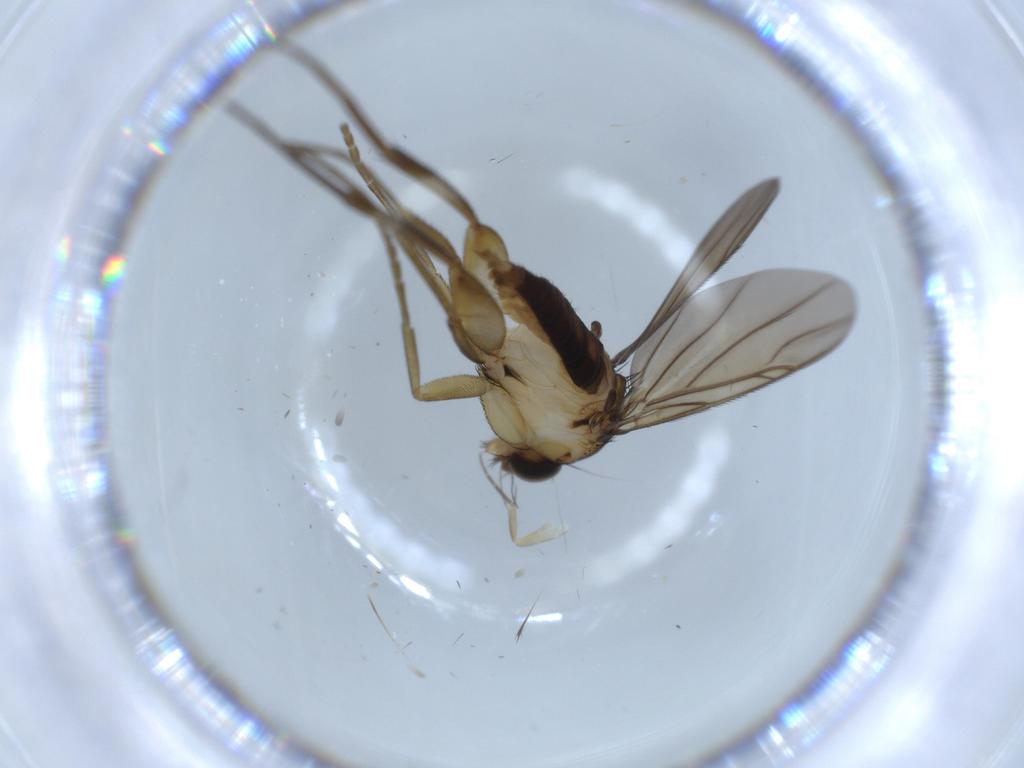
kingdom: Animalia
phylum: Arthropoda
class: Insecta
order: Diptera
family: Phoridae
